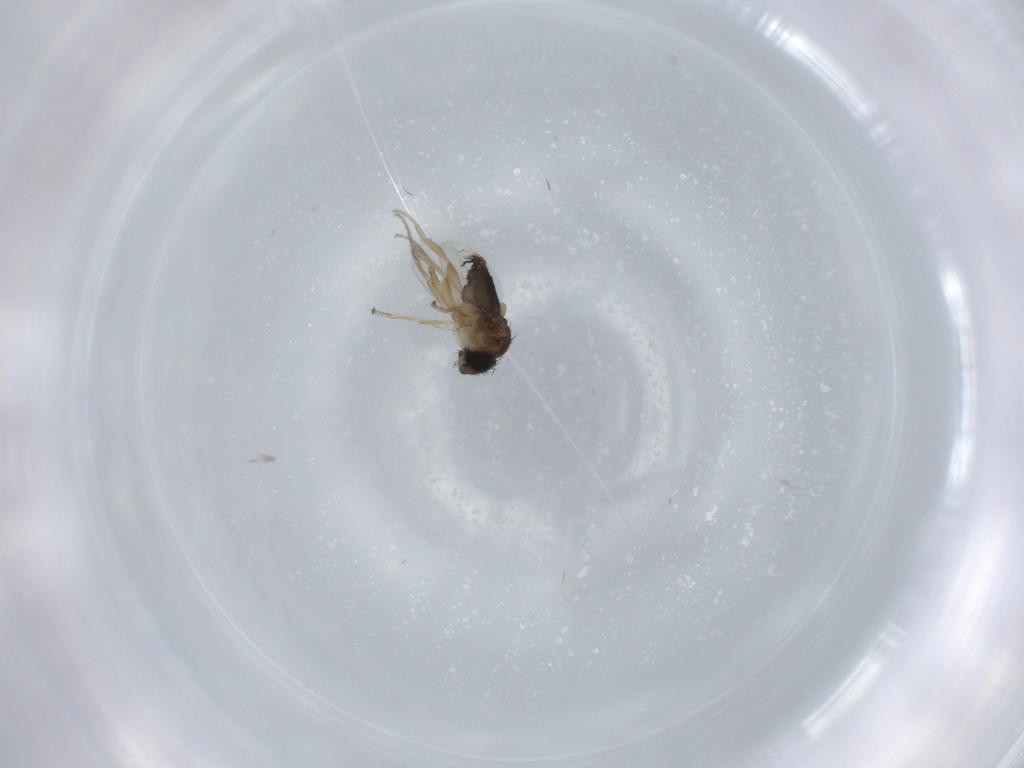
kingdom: Animalia
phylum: Arthropoda
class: Insecta
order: Diptera
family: Phoridae
